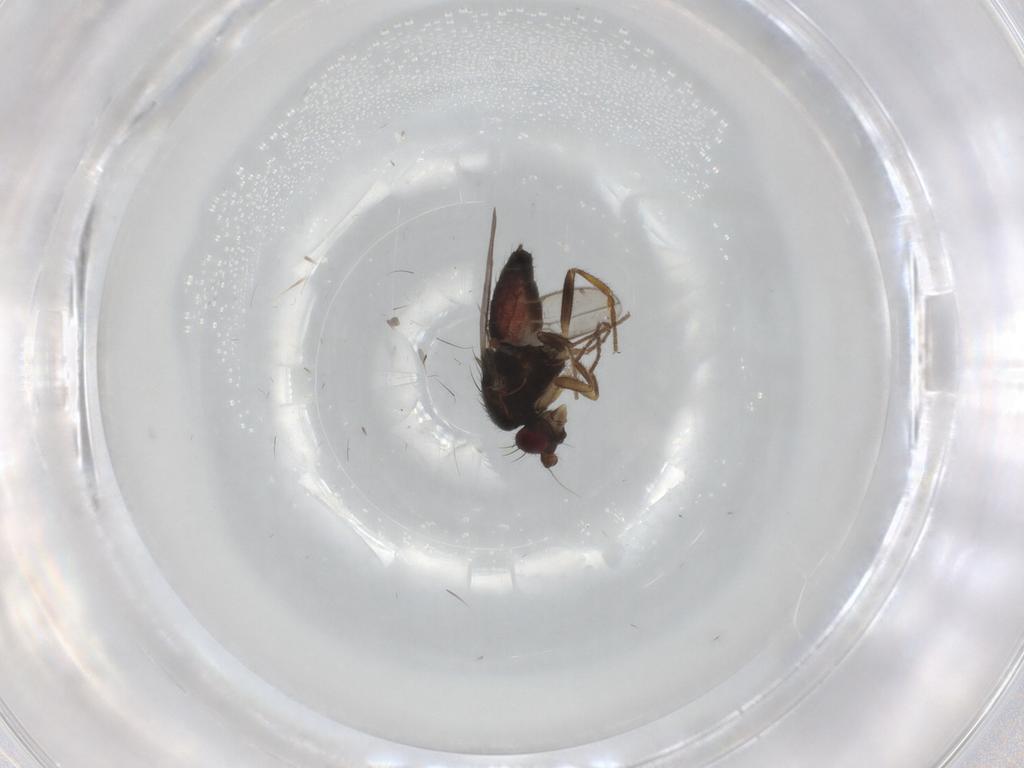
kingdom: Animalia
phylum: Arthropoda
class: Insecta
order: Diptera
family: Sphaeroceridae
